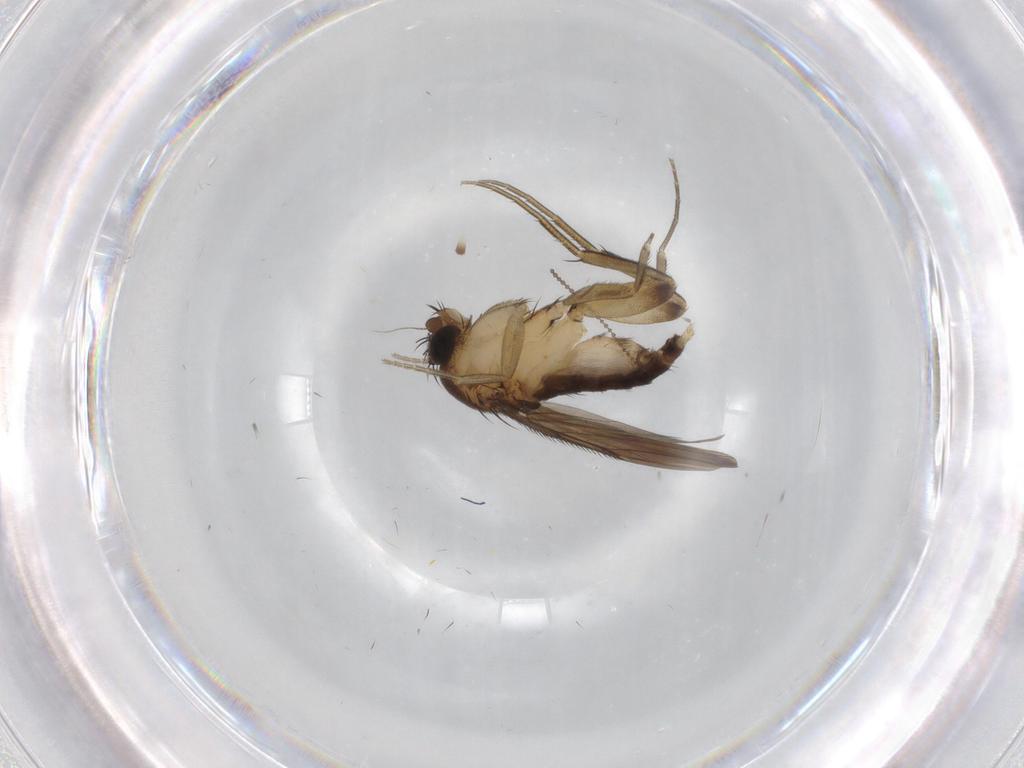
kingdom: Animalia
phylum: Arthropoda
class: Insecta
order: Diptera
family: Phoridae
